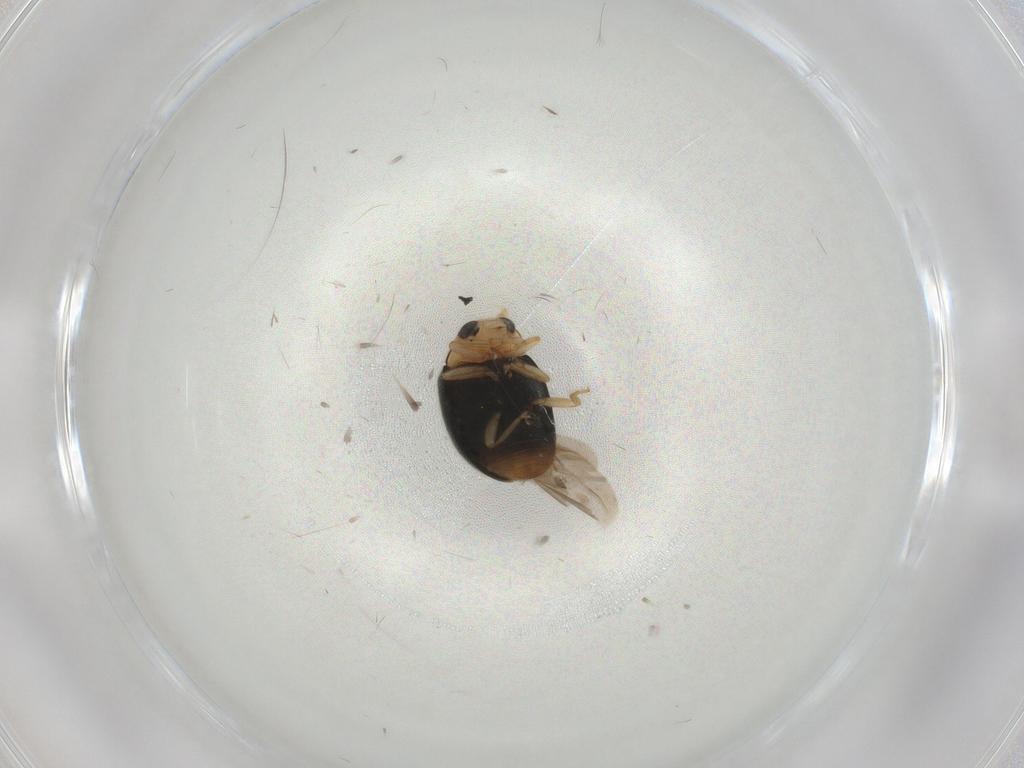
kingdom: Animalia
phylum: Arthropoda
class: Insecta
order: Coleoptera
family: Coccinellidae
